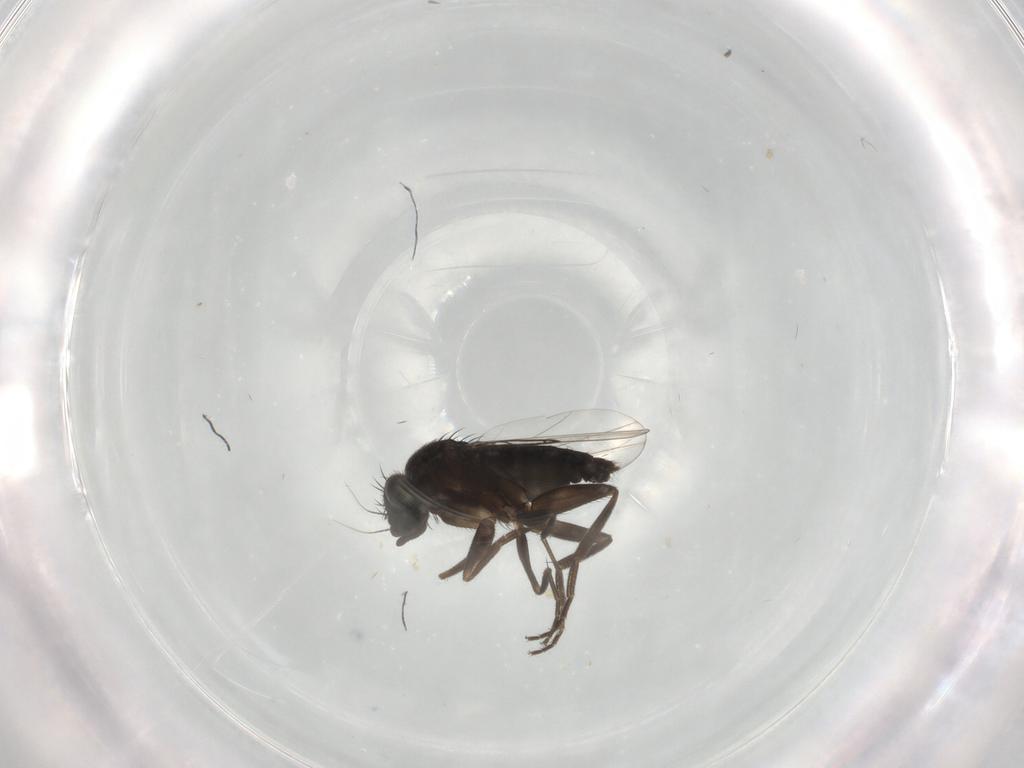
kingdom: Animalia
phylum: Arthropoda
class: Insecta
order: Diptera
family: Phoridae
